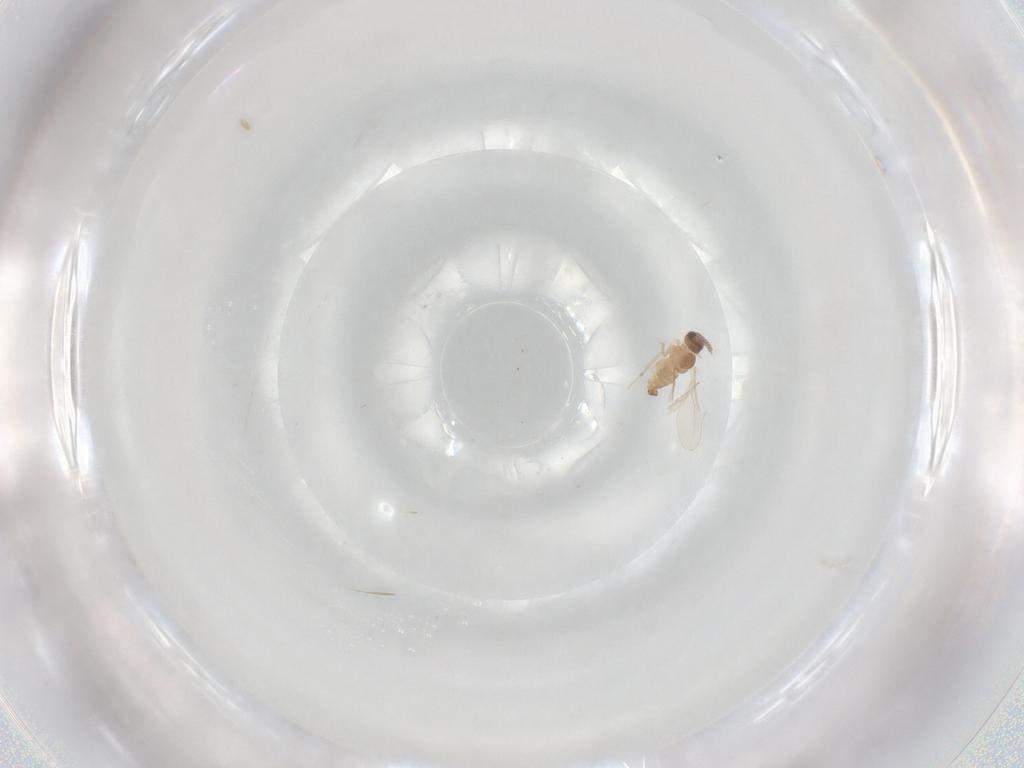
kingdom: Animalia
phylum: Arthropoda
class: Insecta
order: Diptera
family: Cecidomyiidae
